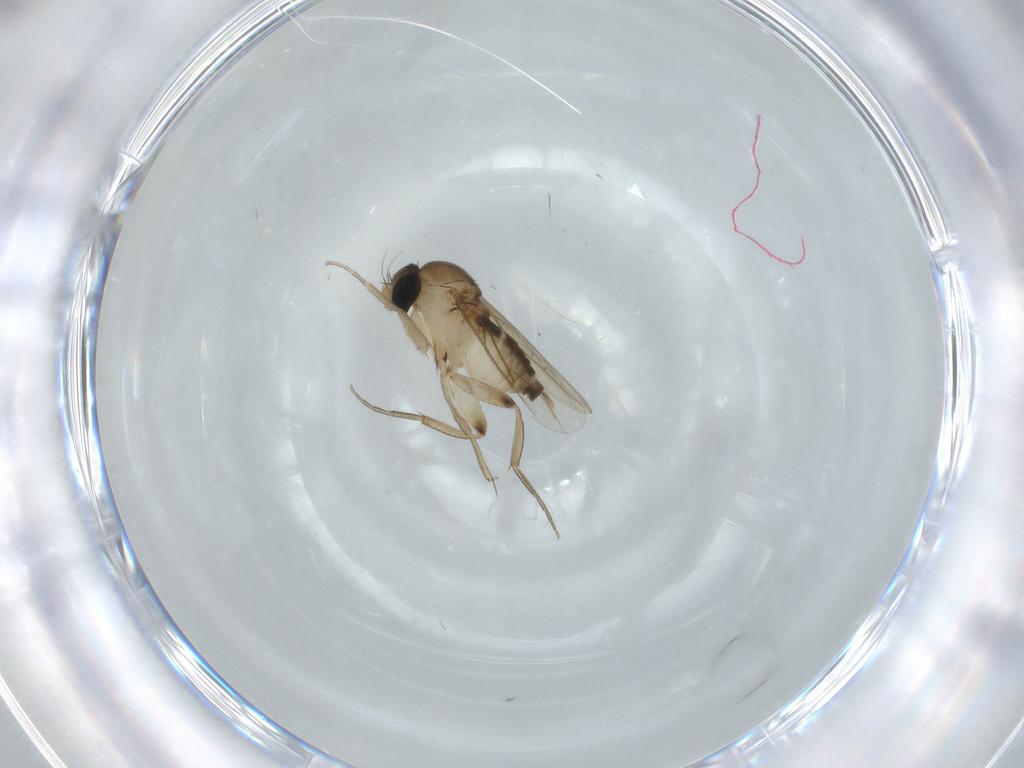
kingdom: Animalia
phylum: Arthropoda
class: Insecta
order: Diptera
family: Phoridae
